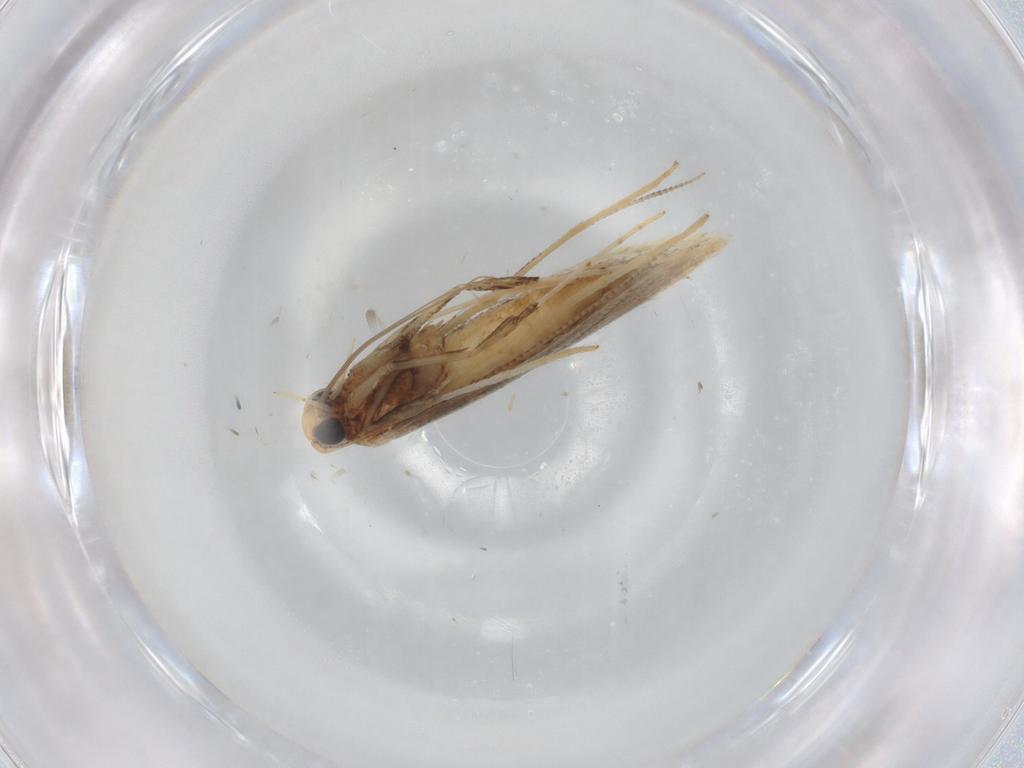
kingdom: Animalia
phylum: Arthropoda
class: Insecta
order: Lepidoptera
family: Gracillariidae
